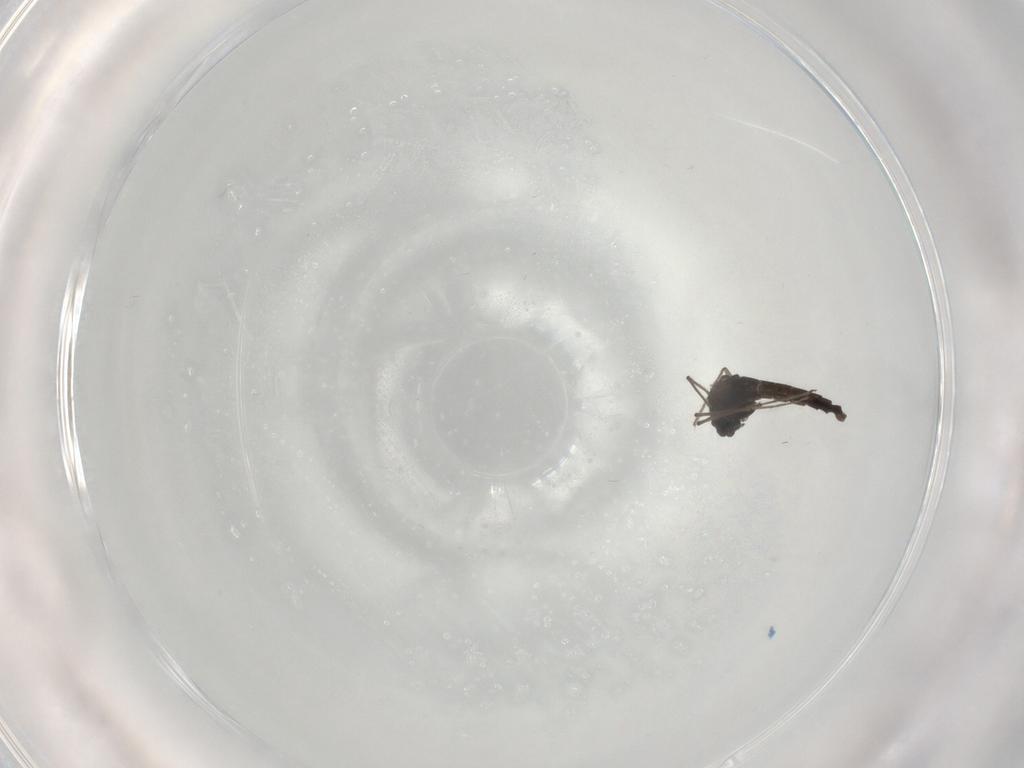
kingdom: Animalia
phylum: Arthropoda
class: Insecta
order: Diptera
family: Chironomidae
